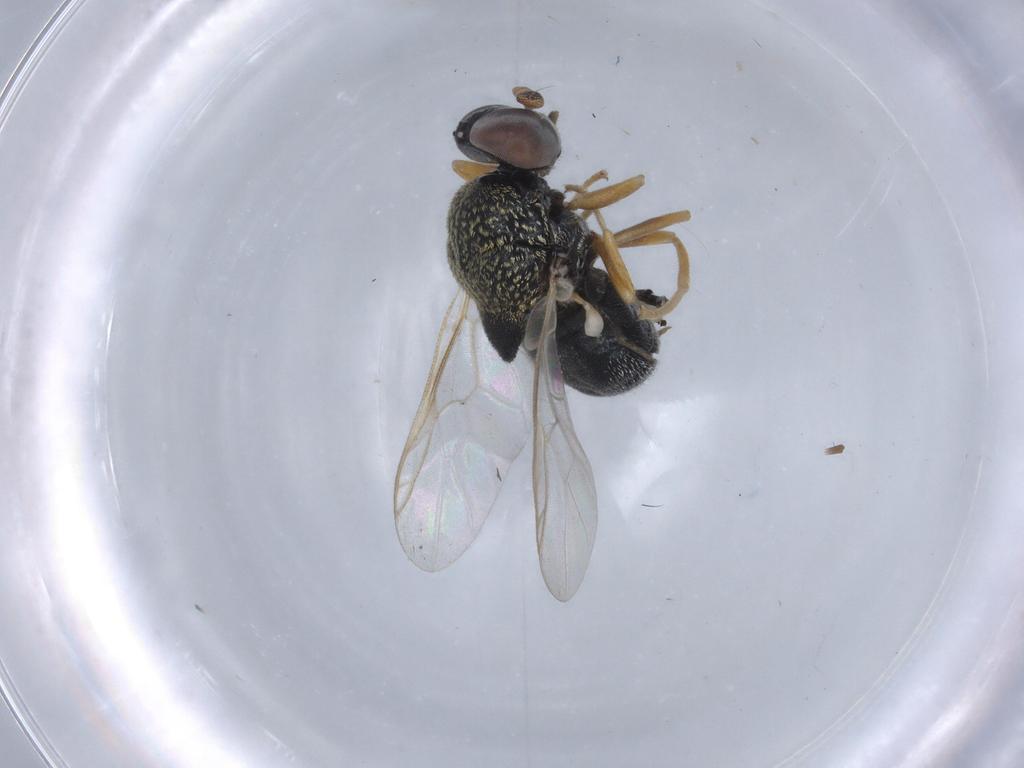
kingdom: Animalia
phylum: Arthropoda
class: Insecta
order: Diptera
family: Stratiomyidae
